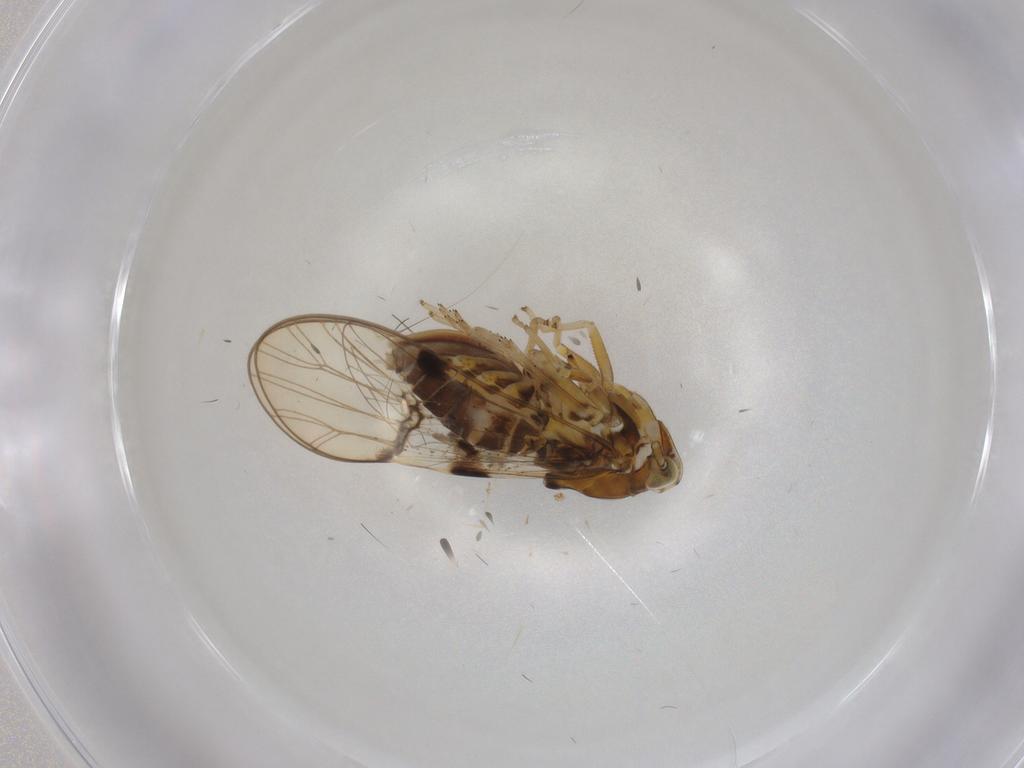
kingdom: Animalia
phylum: Arthropoda
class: Insecta
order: Hemiptera
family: Delphacidae
